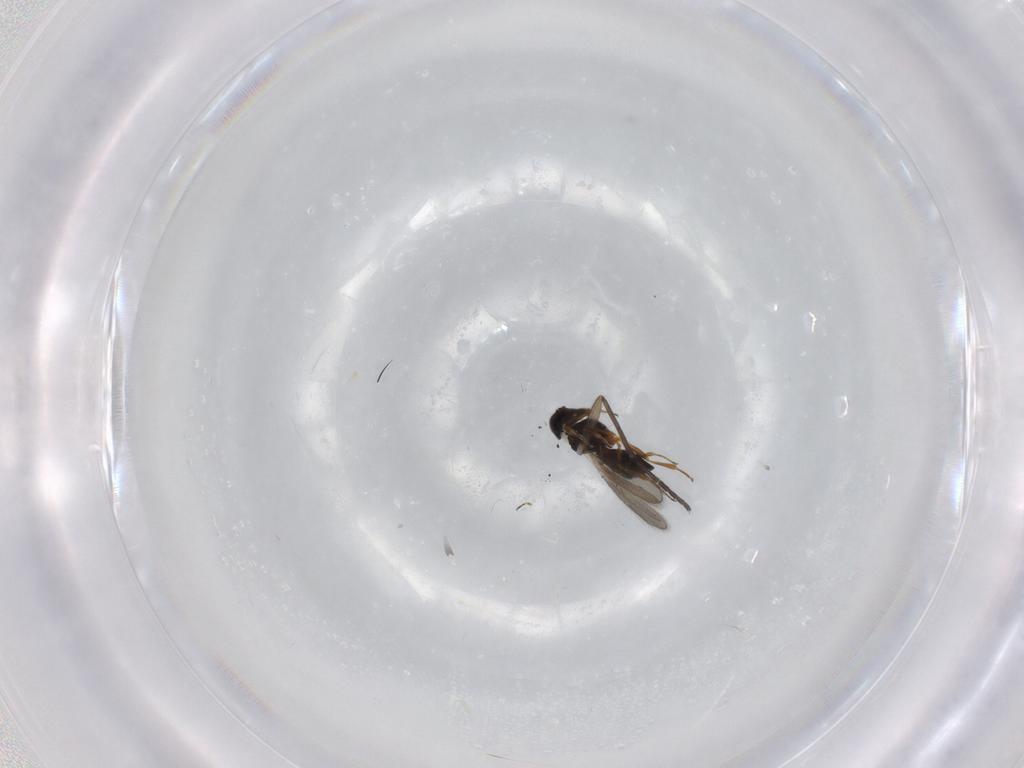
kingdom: Animalia
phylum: Arthropoda
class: Insecta
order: Hymenoptera
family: Scelionidae
